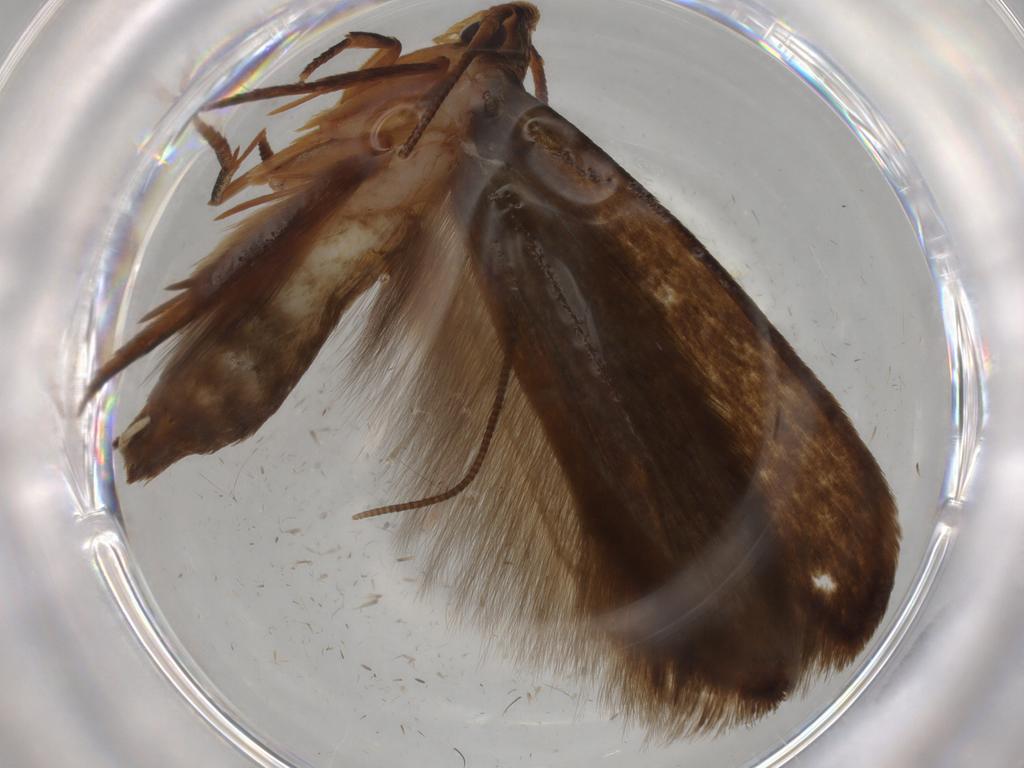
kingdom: Animalia
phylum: Arthropoda
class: Insecta
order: Lepidoptera
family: Tineidae
